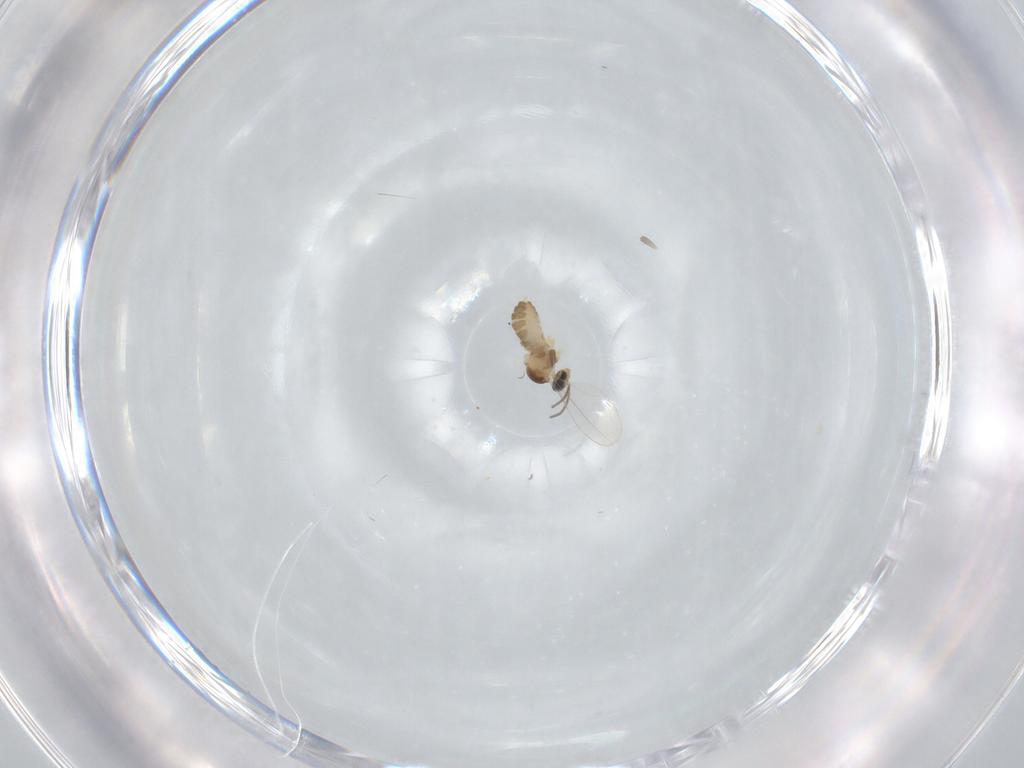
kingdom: Animalia
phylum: Arthropoda
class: Insecta
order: Diptera
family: Cecidomyiidae
